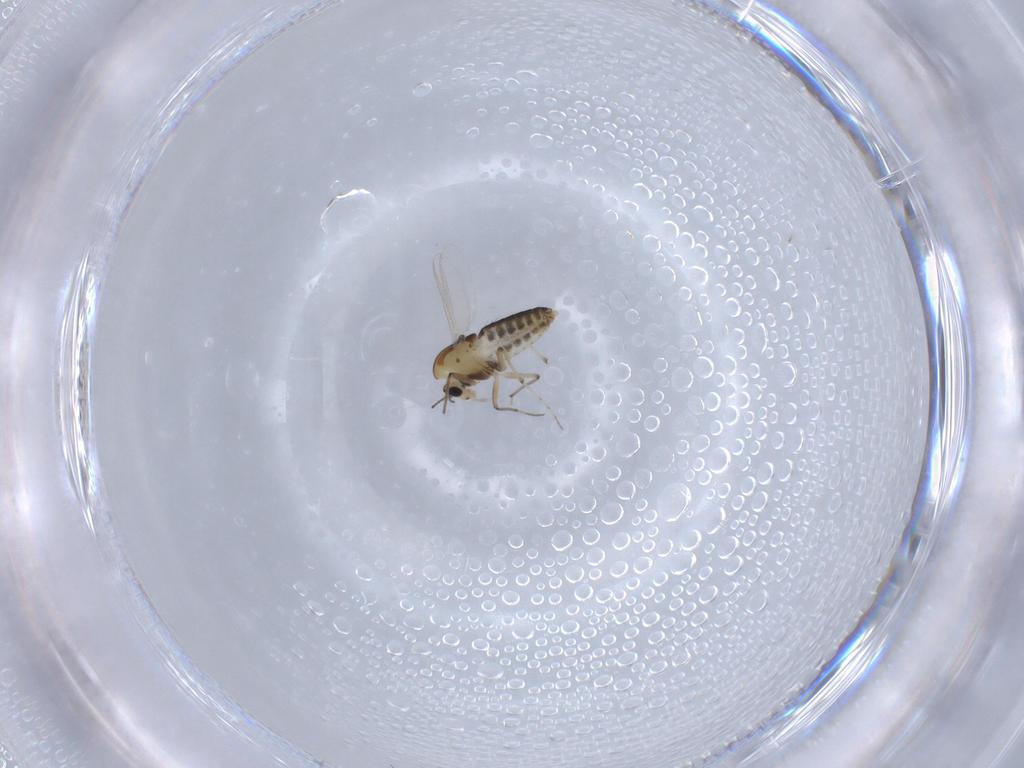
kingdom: Animalia
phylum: Arthropoda
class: Insecta
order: Diptera
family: Chironomidae
